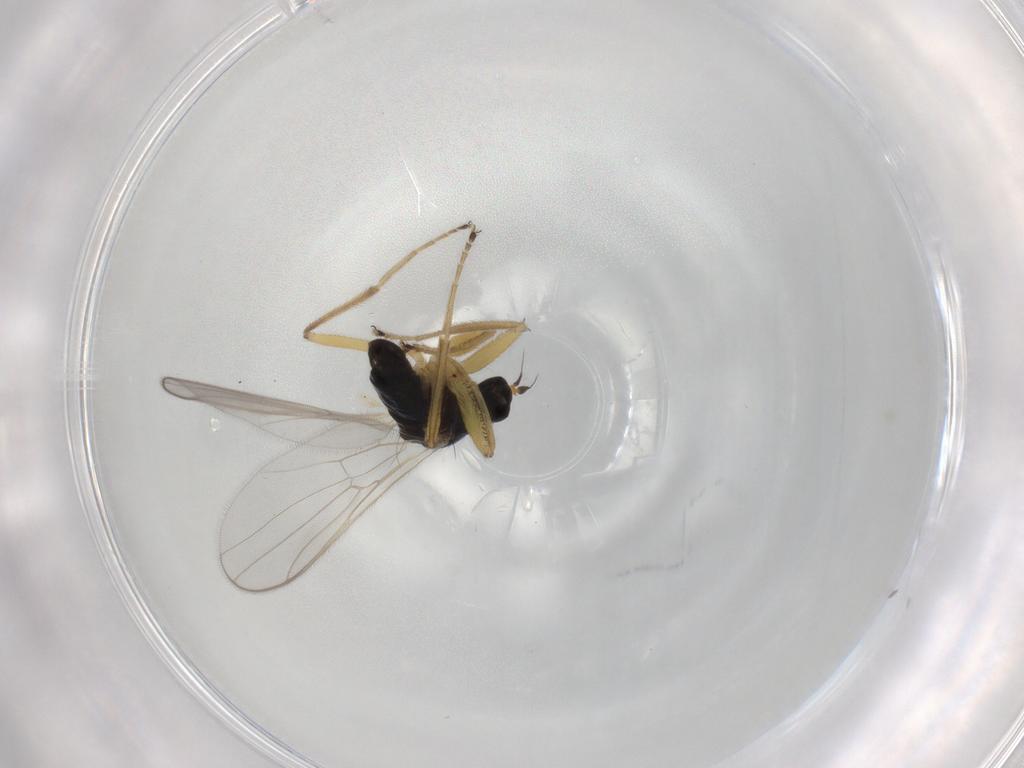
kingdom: Animalia
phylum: Arthropoda
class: Insecta
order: Diptera
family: Hybotidae
